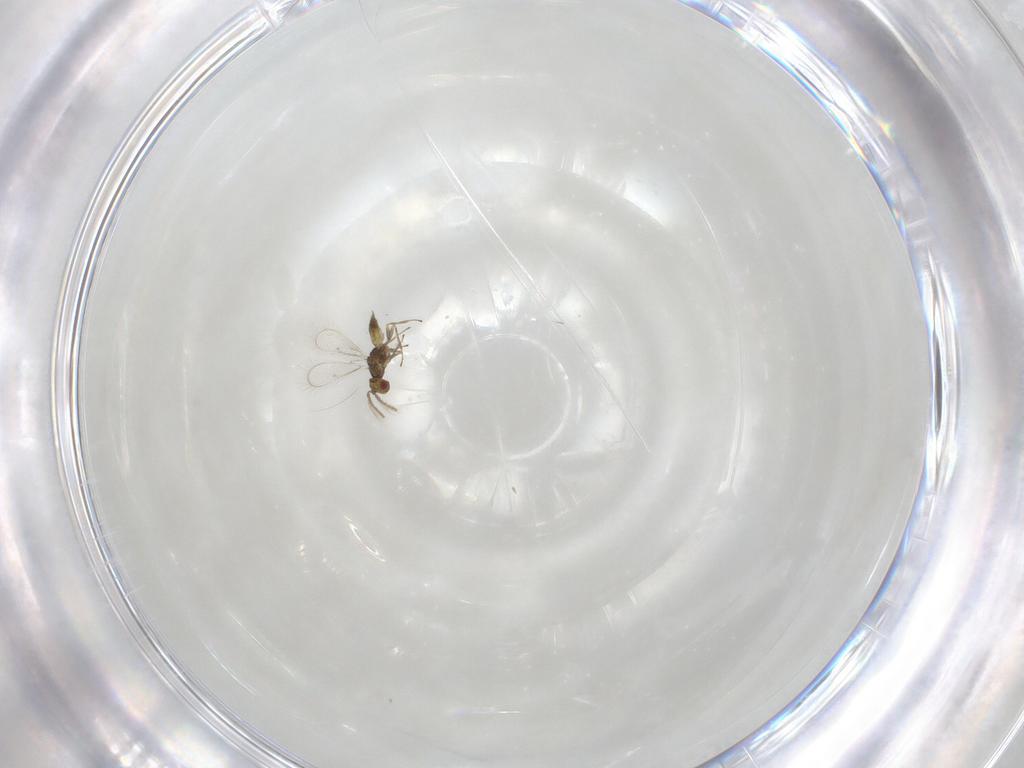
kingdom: Animalia
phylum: Arthropoda
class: Insecta
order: Hymenoptera
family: Eulophidae
